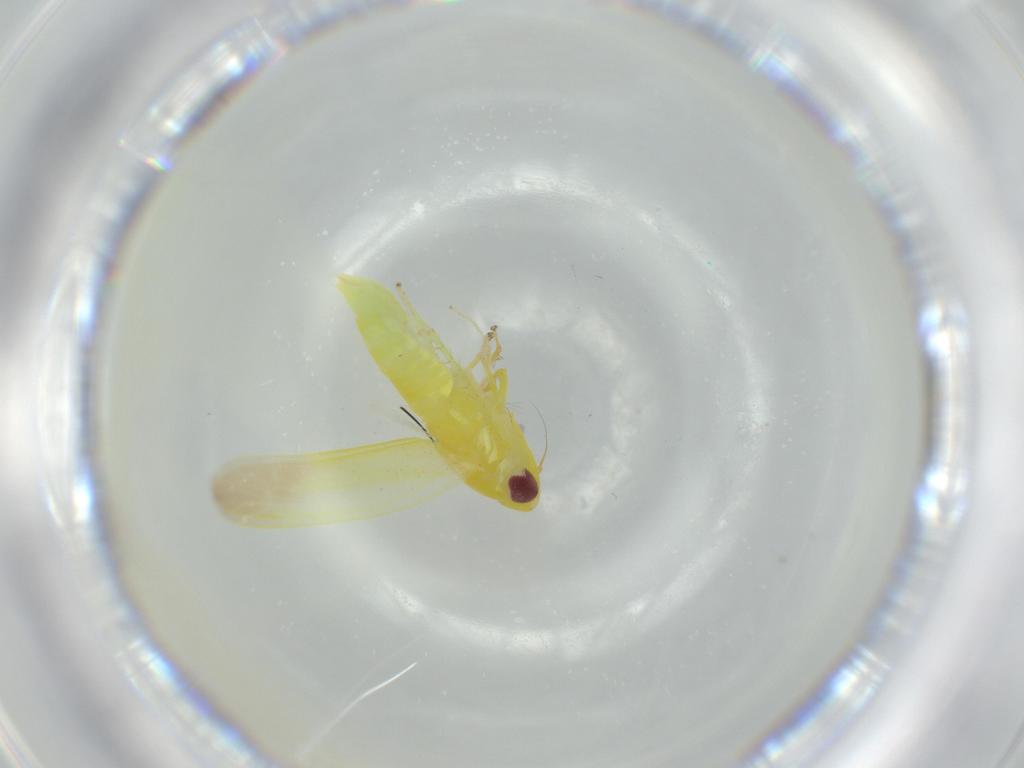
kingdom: Animalia
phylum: Arthropoda
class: Insecta
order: Hemiptera
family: Cicadellidae
